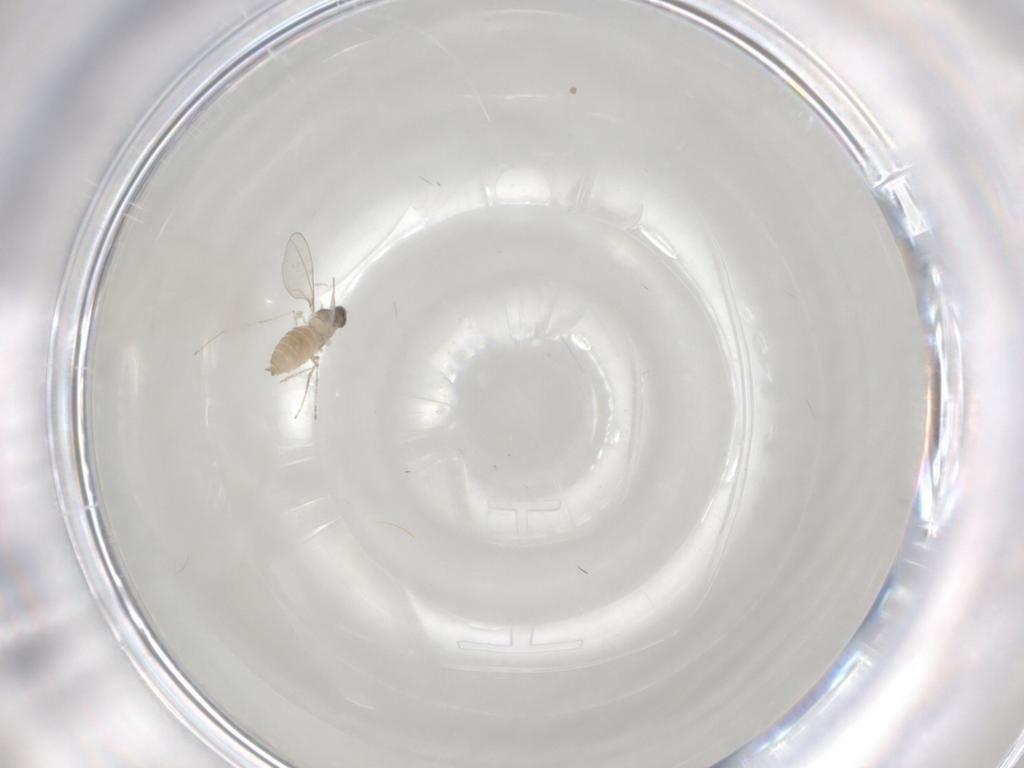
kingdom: Animalia
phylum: Arthropoda
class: Insecta
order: Diptera
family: Cecidomyiidae
